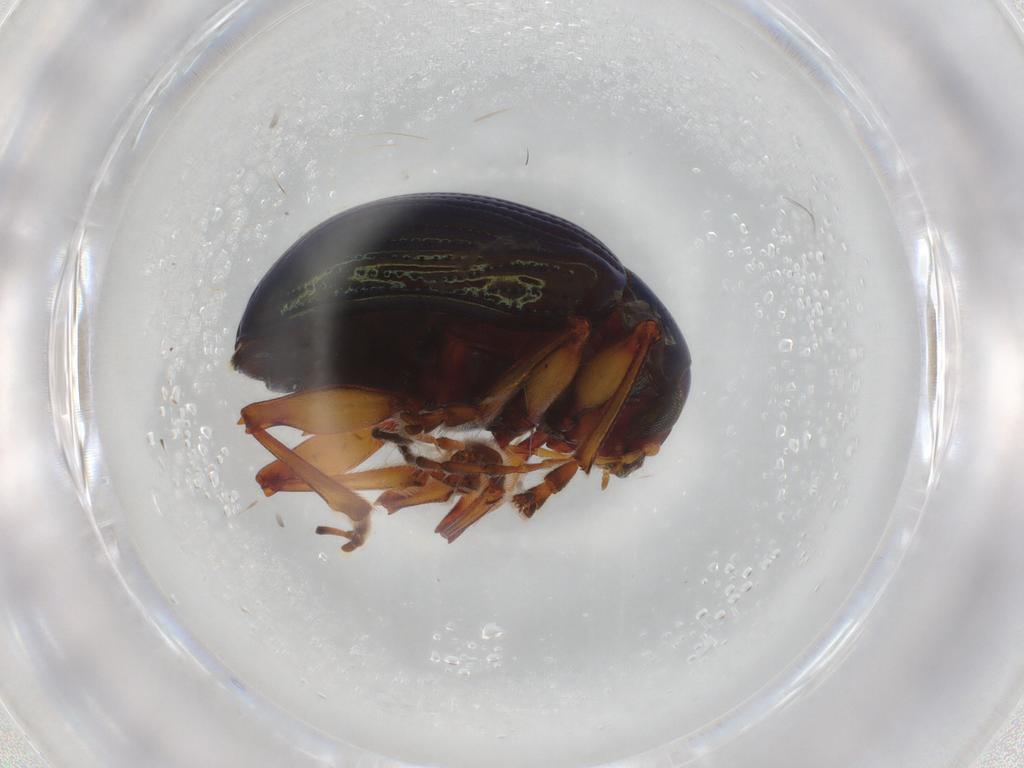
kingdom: Animalia
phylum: Arthropoda
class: Insecta
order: Coleoptera
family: Chrysomelidae
